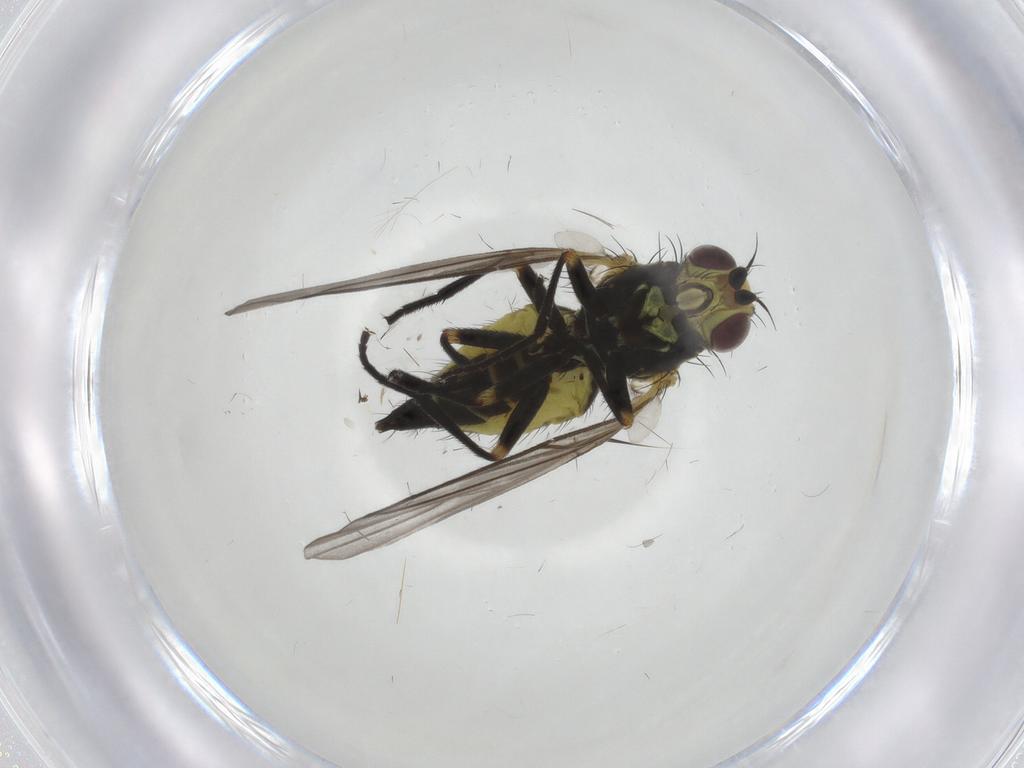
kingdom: Animalia
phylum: Arthropoda
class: Insecta
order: Diptera
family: Agromyzidae
